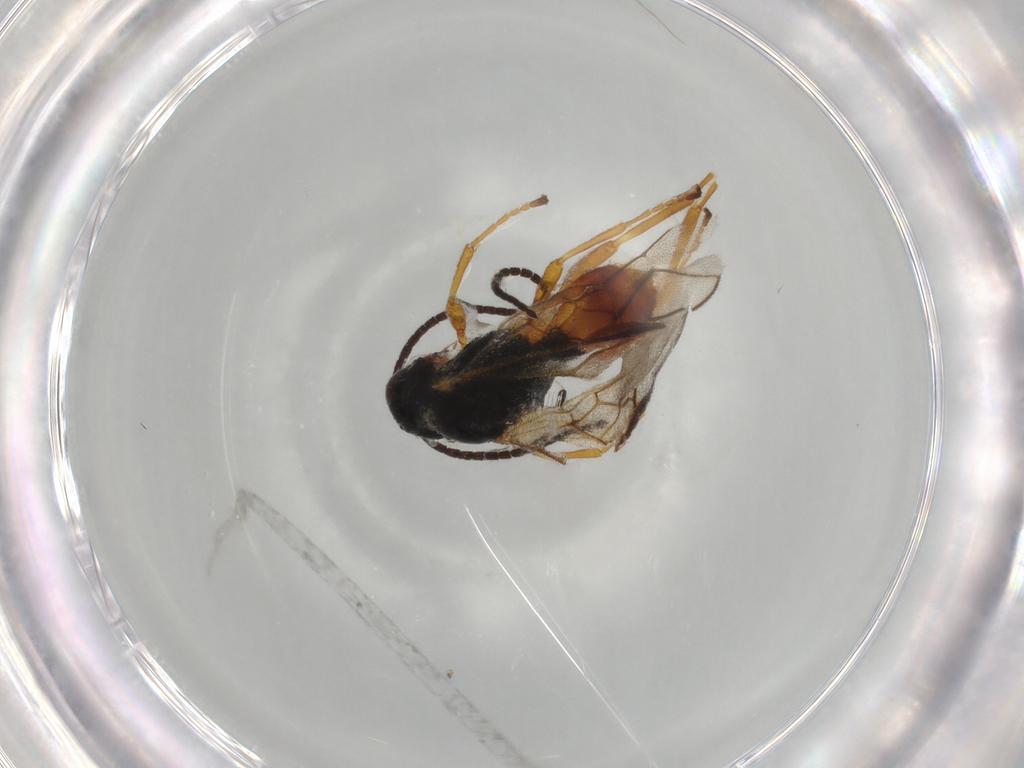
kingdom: Animalia
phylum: Arthropoda
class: Insecta
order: Hymenoptera
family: Braconidae
